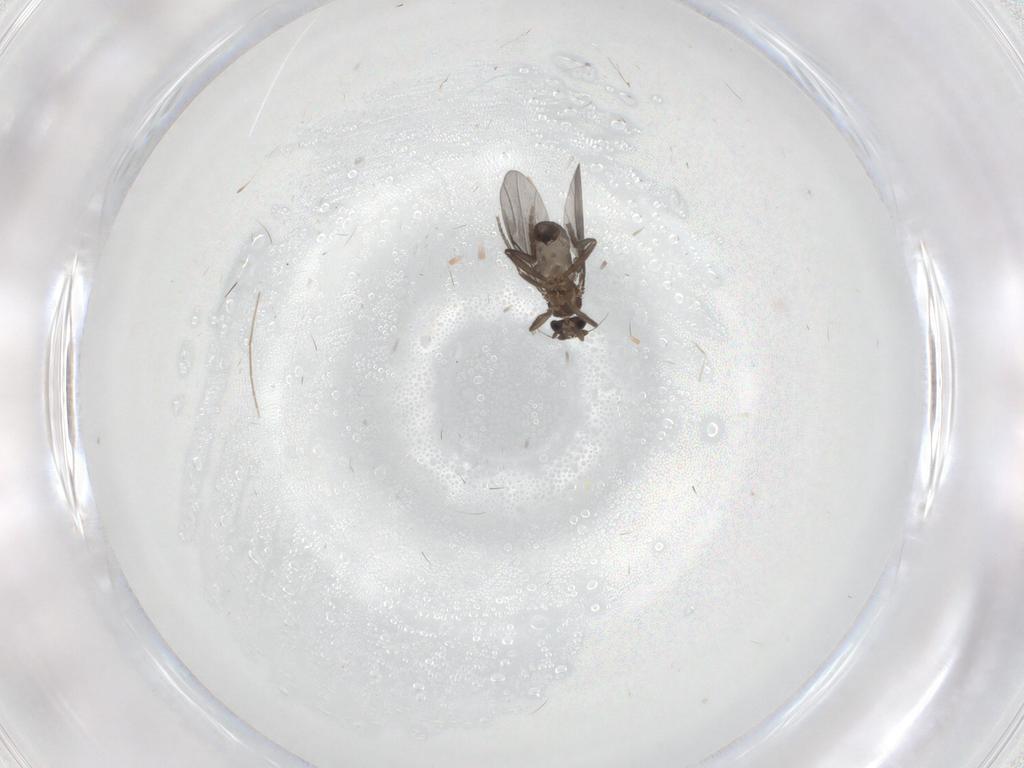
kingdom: Animalia
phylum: Arthropoda
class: Insecta
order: Diptera
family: Phoridae
